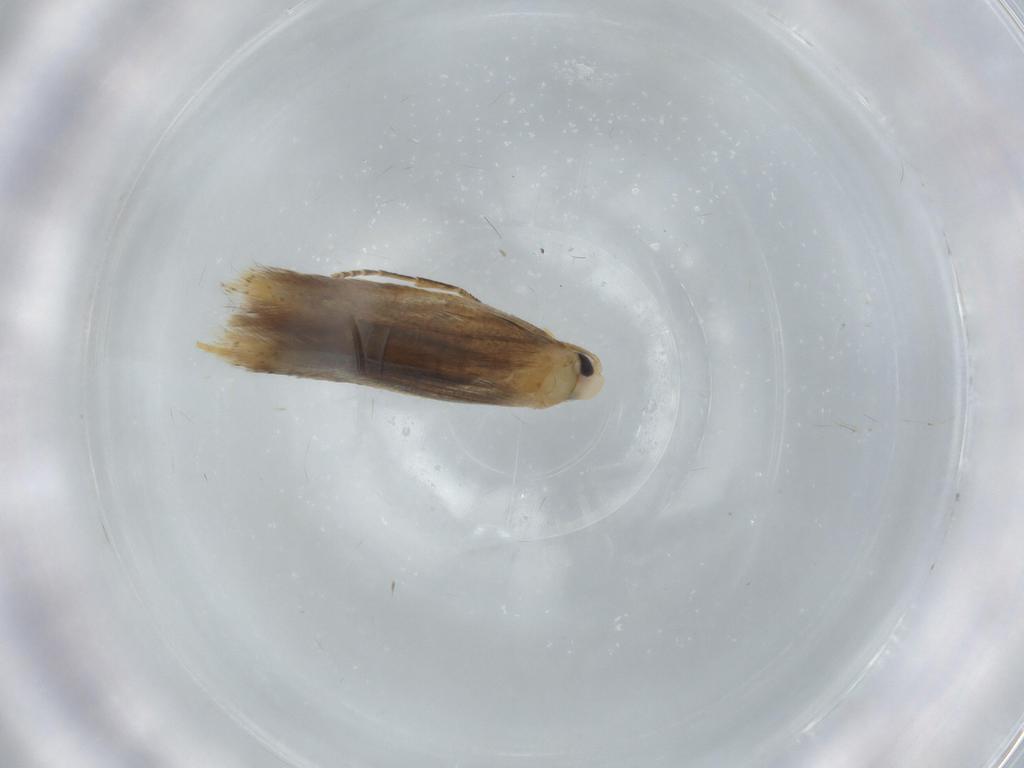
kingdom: Animalia
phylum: Arthropoda
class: Insecta
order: Lepidoptera
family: Tischeriidae
